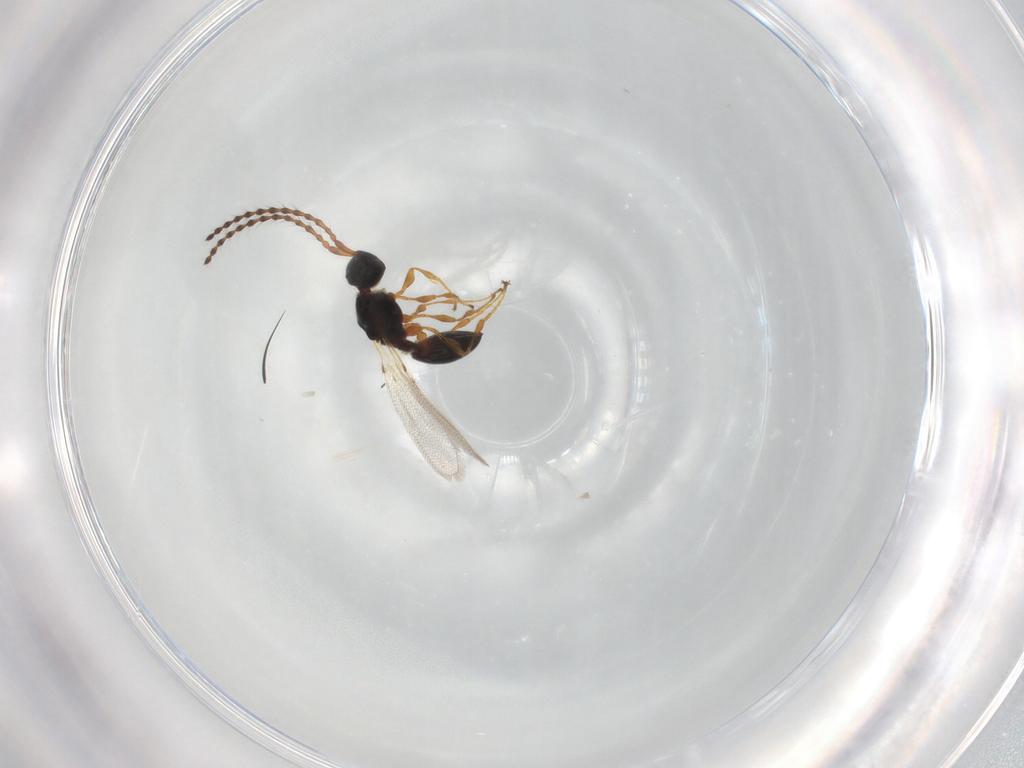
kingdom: Animalia
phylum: Arthropoda
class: Insecta
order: Hymenoptera
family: Diapriidae
